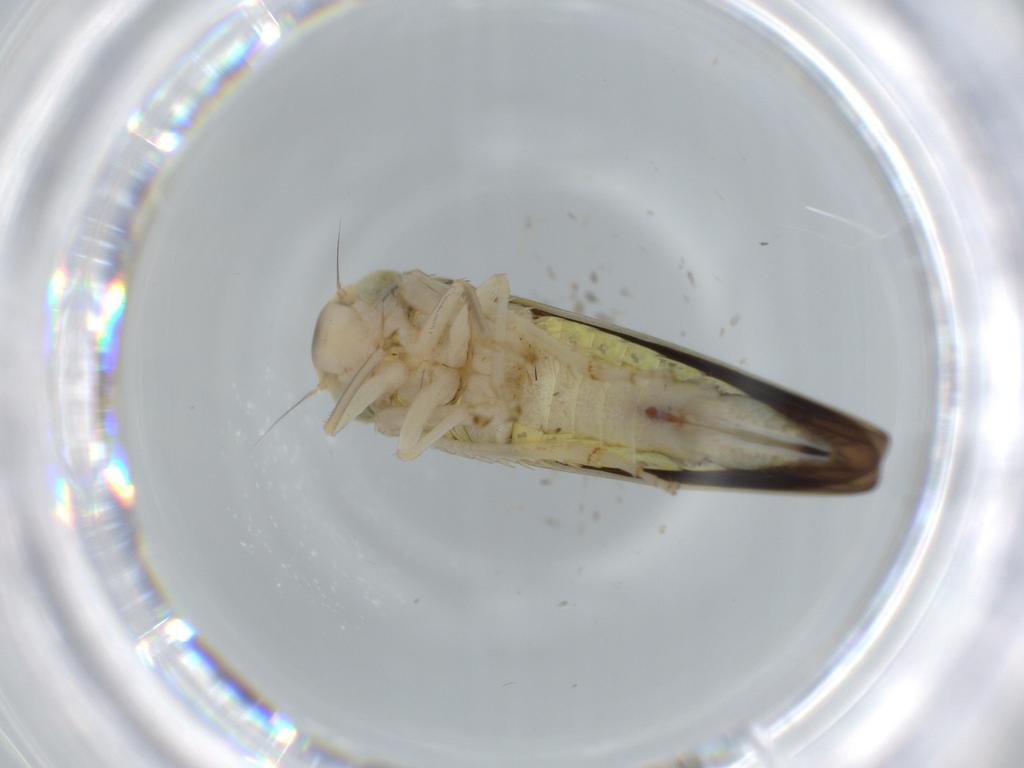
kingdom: Animalia
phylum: Arthropoda
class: Insecta
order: Hemiptera
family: Cicadellidae
